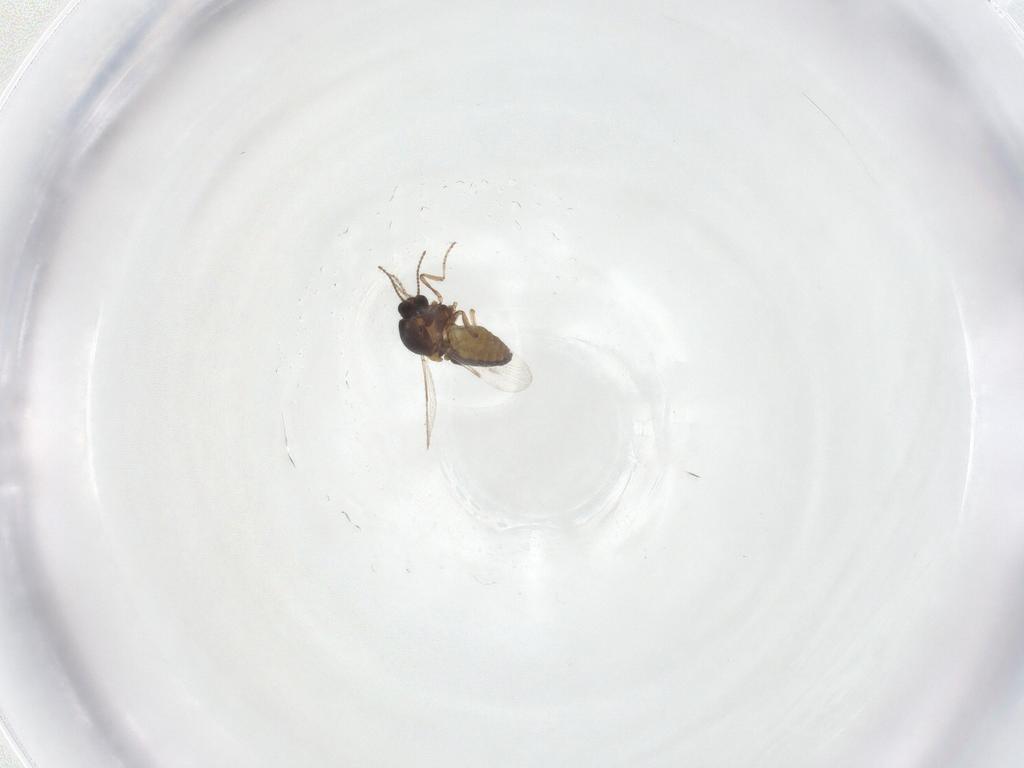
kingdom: Animalia
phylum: Arthropoda
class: Insecta
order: Diptera
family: Ceratopogonidae
